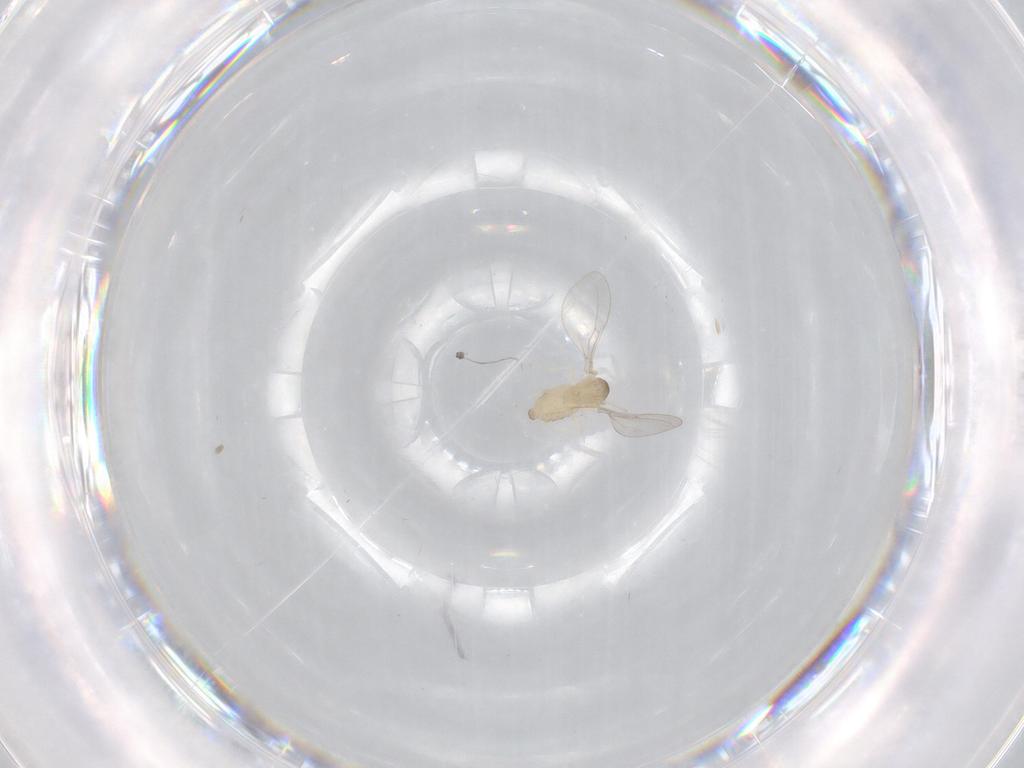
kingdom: Animalia
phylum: Arthropoda
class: Insecta
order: Diptera
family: Cecidomyiidae
